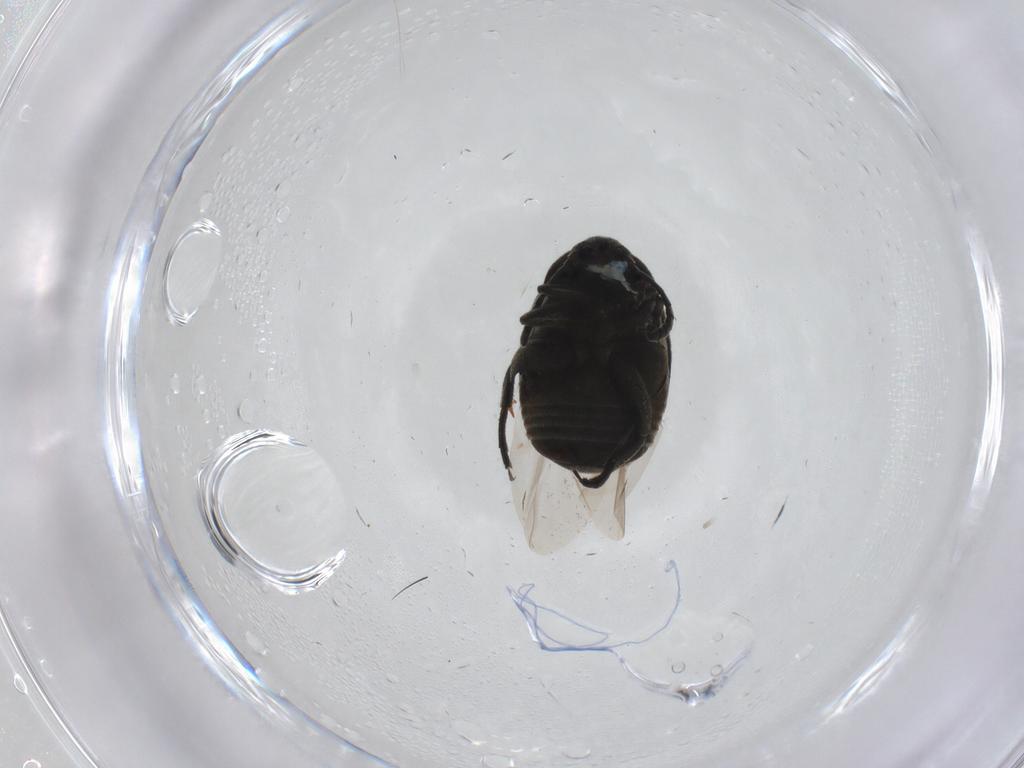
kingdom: Animalia
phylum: Arthropoda
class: Insecta
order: Coleoptera
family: Chrysomelidae
